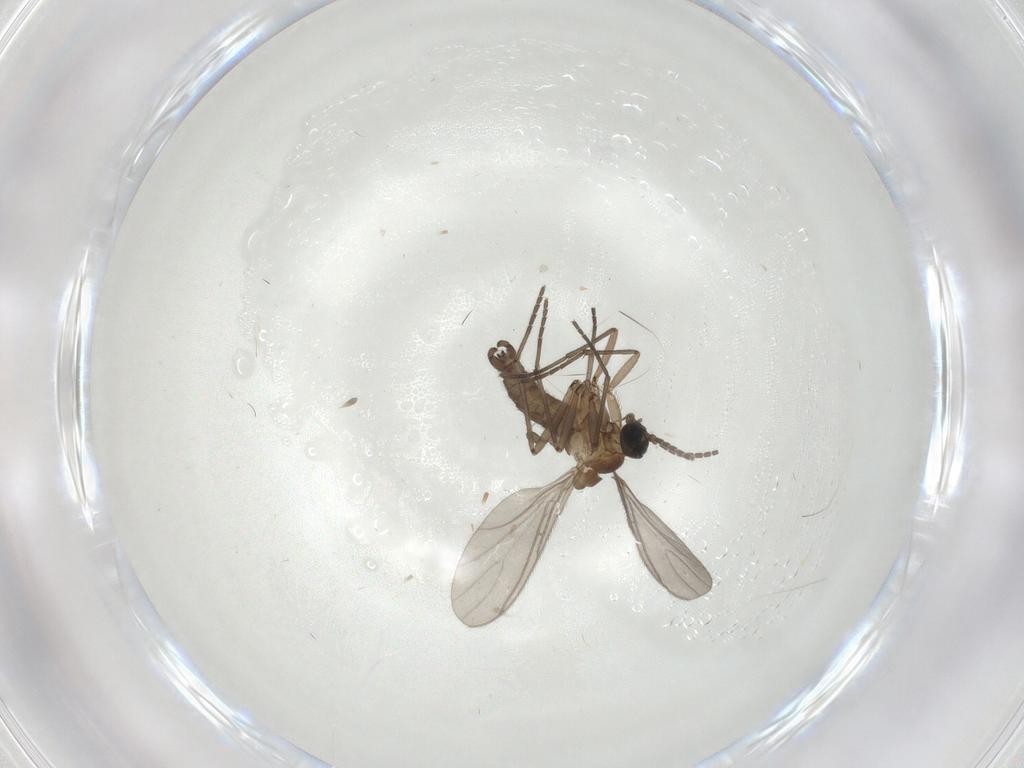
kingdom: Animalia
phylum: Arthropoda
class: Insecta
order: Diptera
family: Sciaridae
